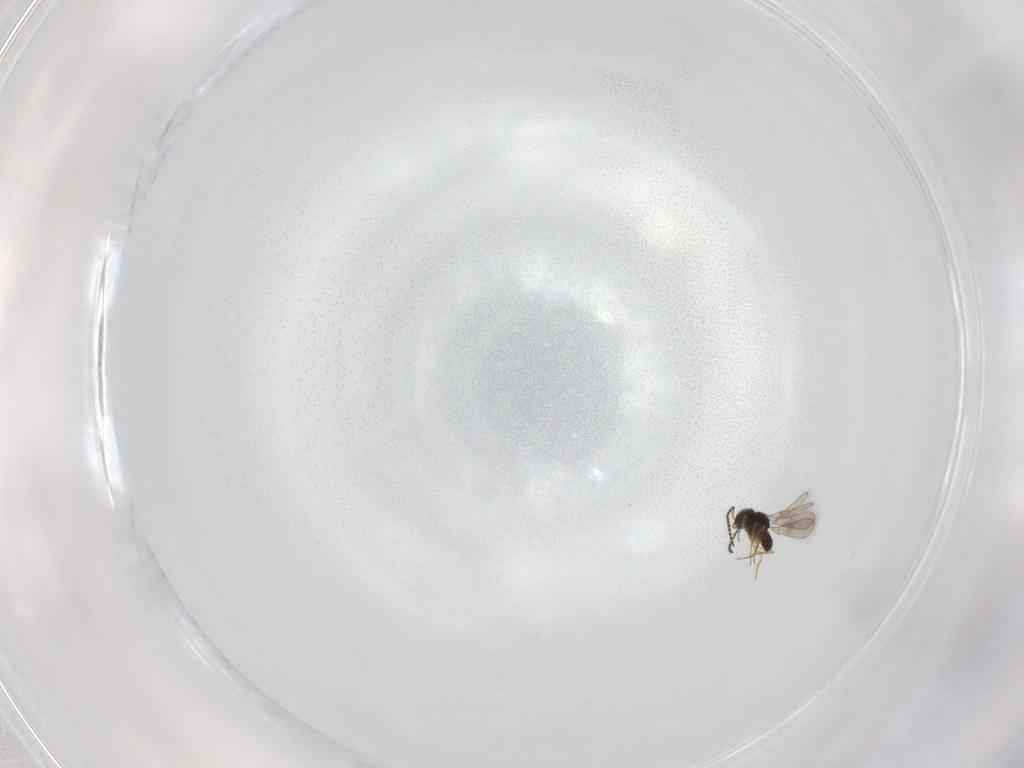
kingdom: Animalia
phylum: Arthropoda
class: Insecta
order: Hymenoptera
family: Scelionidae
